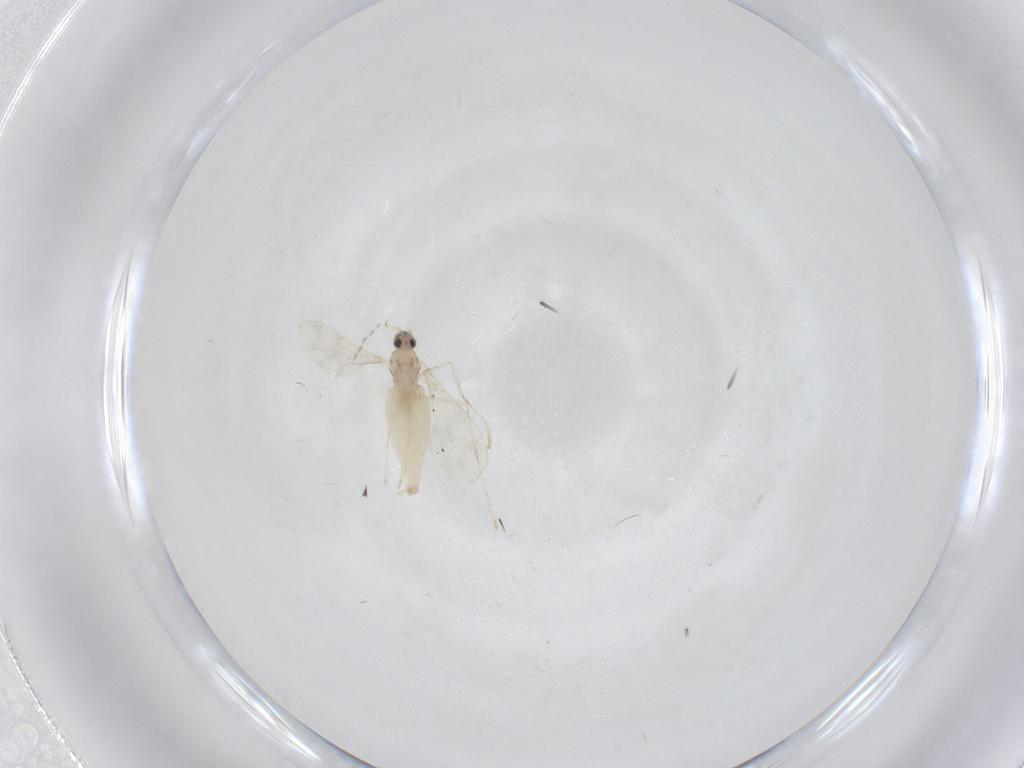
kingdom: Animalia
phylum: Arthropoda
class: Insecta
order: Diptera
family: Cecidomyiidae
